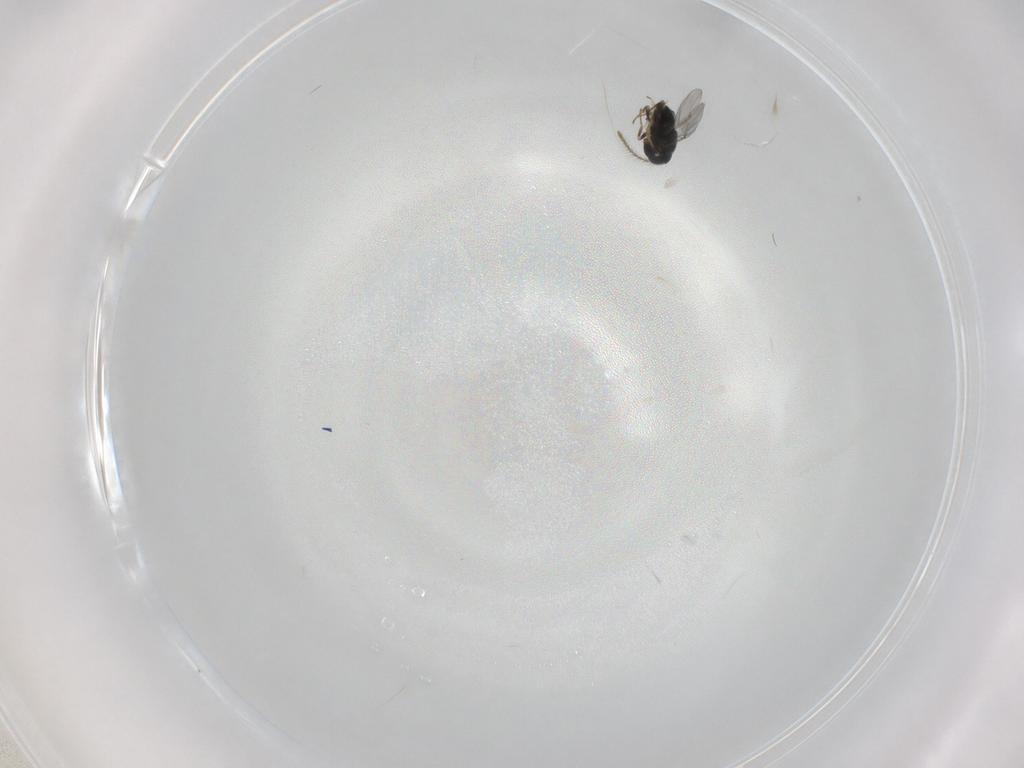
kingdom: Animalia
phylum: Arthropoda
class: Insecta
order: Hymenoptera
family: Encyrtidae
